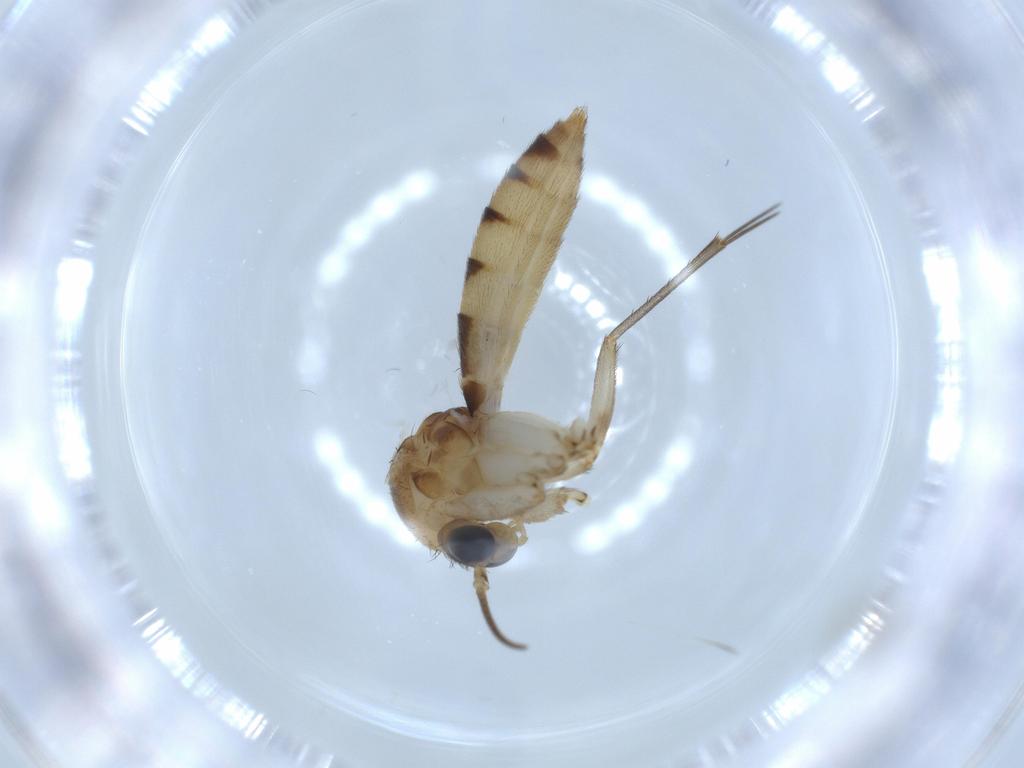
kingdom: Animalia
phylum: Arthropoda
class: Insecta
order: Diptera
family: Mycetophilidae
